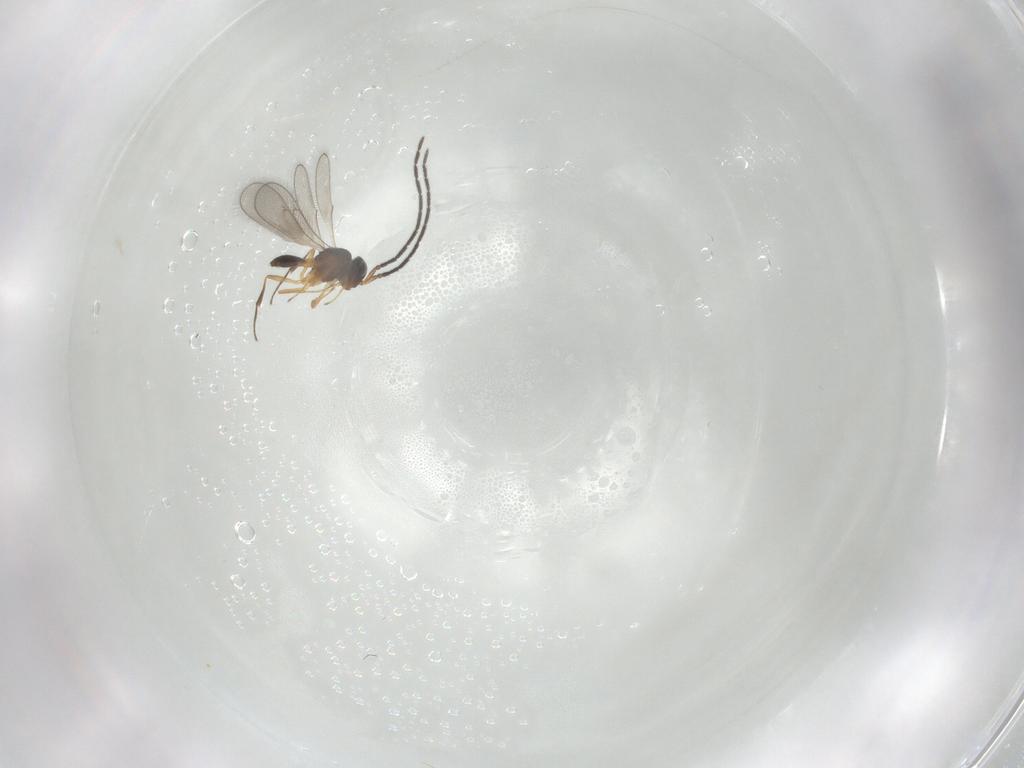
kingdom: Animalia
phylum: Arthropoda
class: Insecta
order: Hymenoptera
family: Scelionidae
